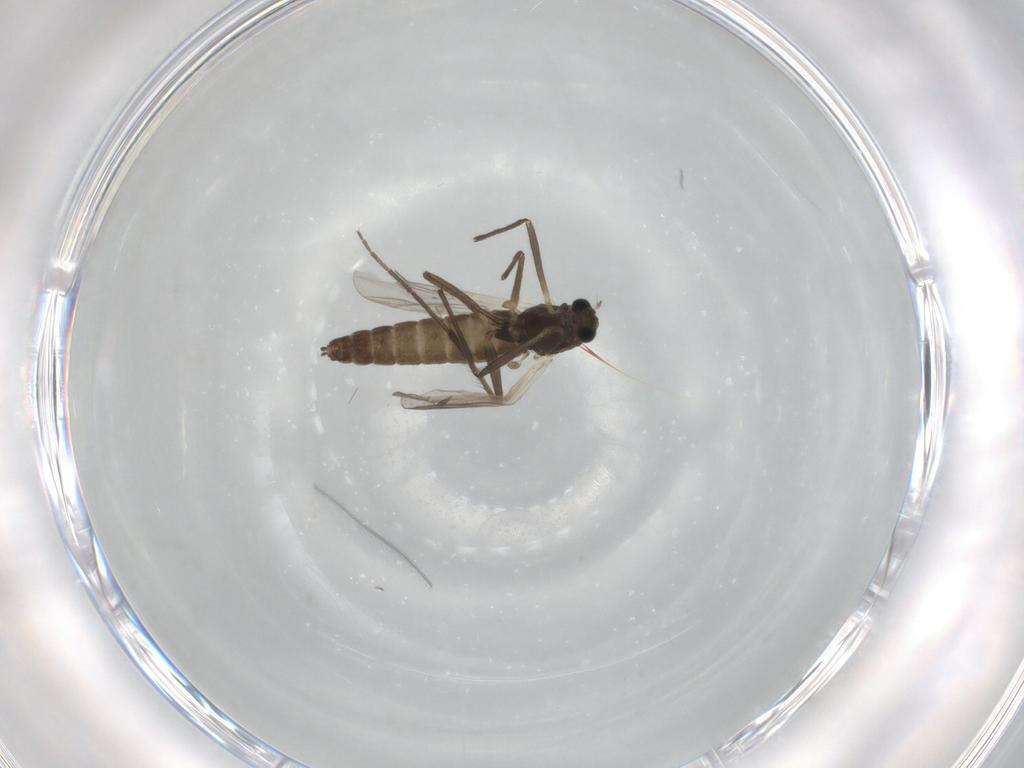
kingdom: Animalia
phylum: Arthropoda
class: Insecta
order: Diptera
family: Chironomidae
